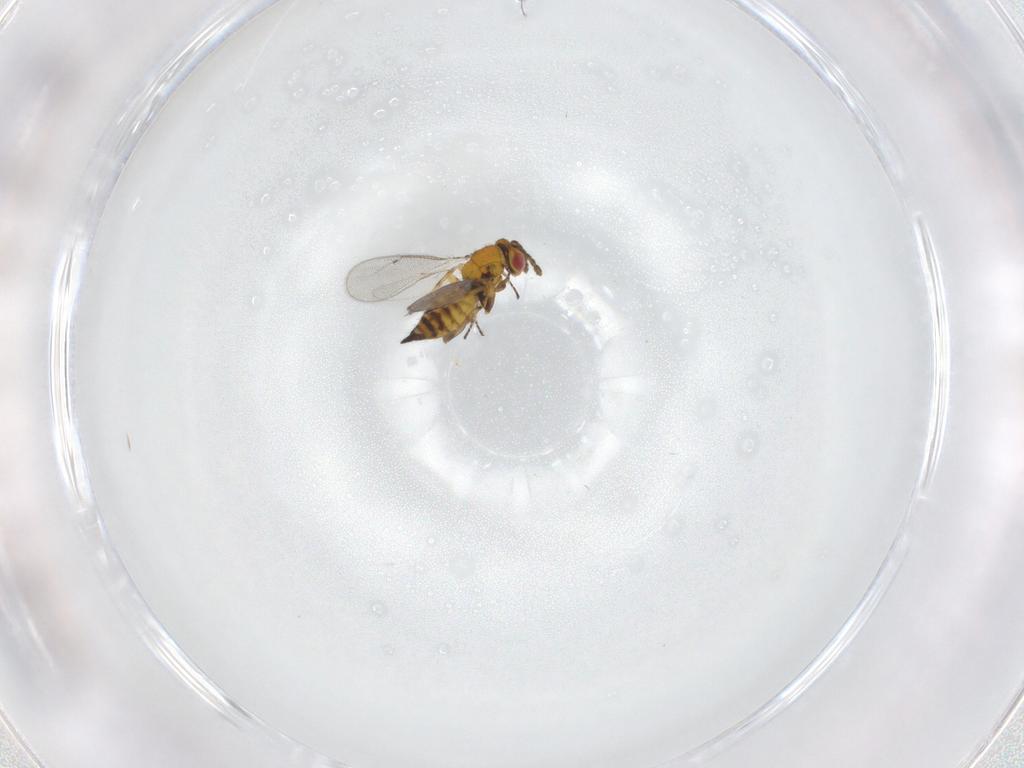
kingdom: Animalia
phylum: Arthropoda
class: Insecta
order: Hymenoptera
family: Eulophidae
